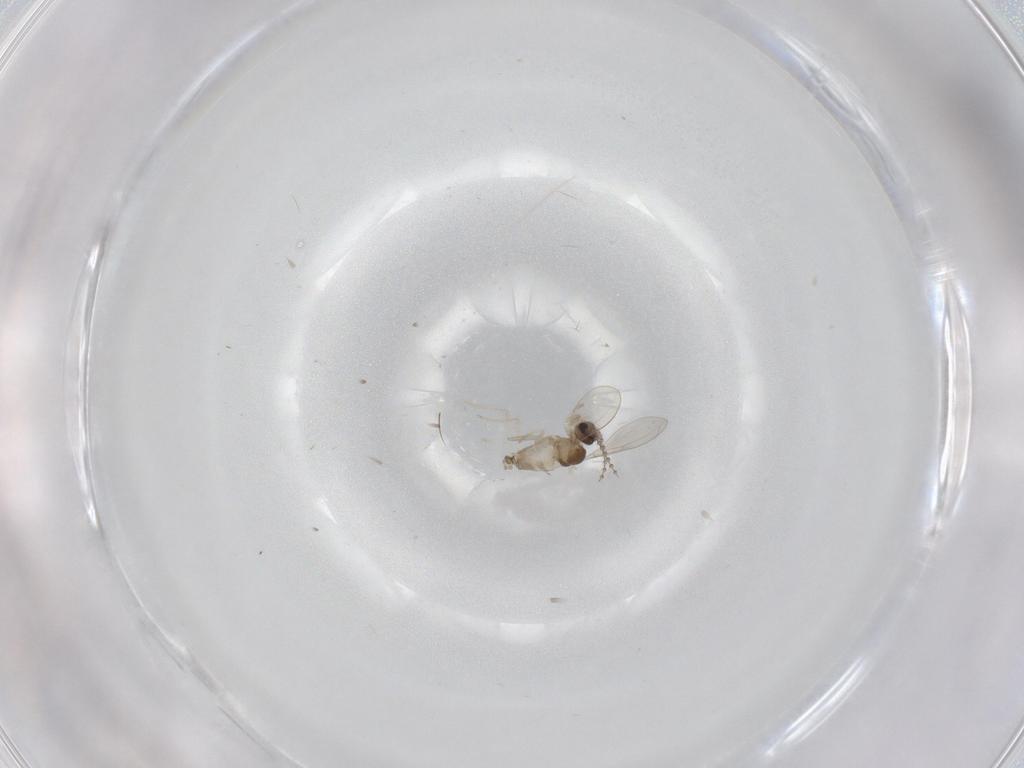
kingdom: Animalia
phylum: Arthropoda
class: Insecta
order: Diptera
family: Cecidomyiidae
